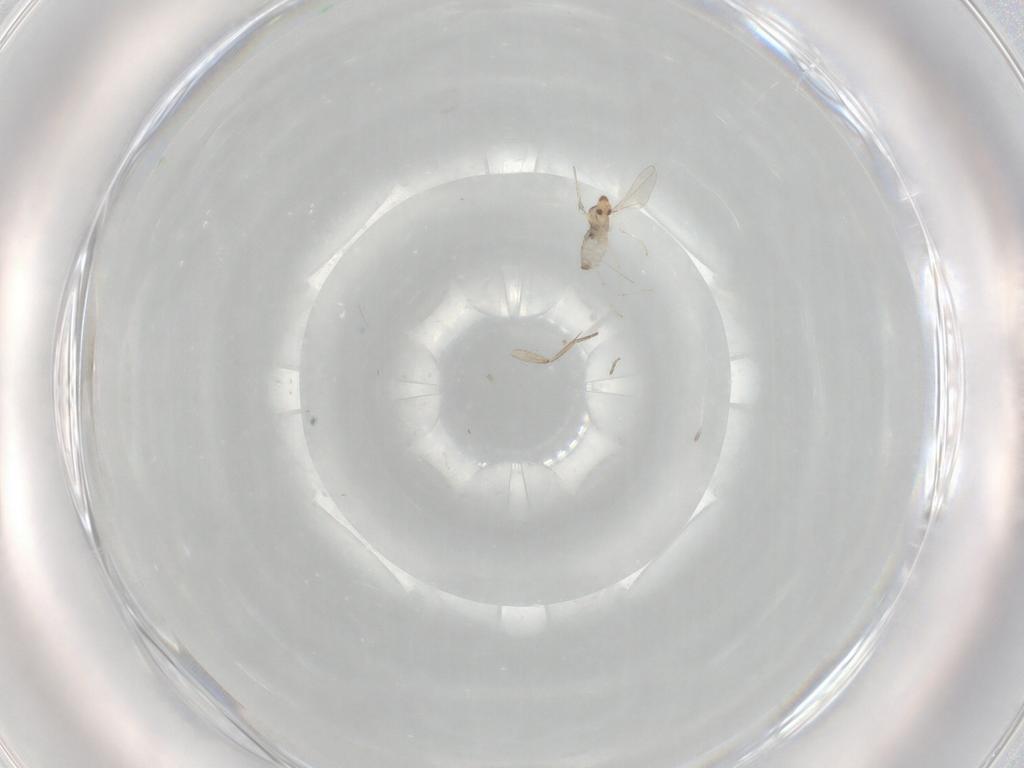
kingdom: Animalia
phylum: Arthropoda
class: Insecta
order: Diptera
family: Cecidomyiidae
